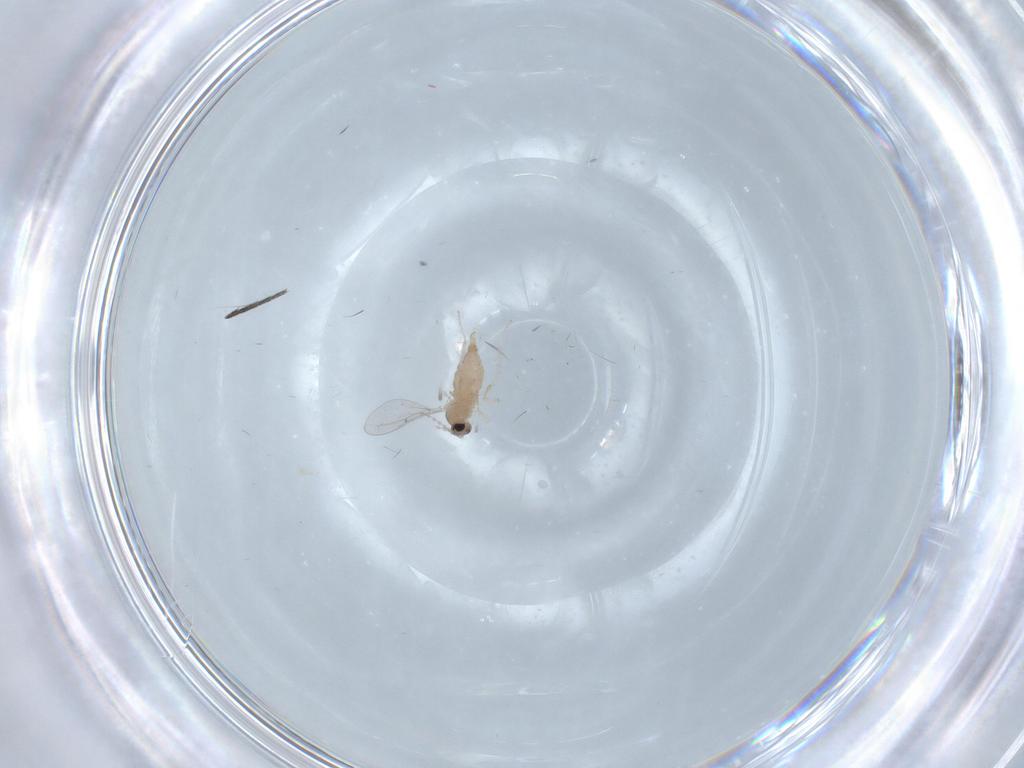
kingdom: Animalia
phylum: Arthropoda
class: Insecta
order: Diptera
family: Cecidomyiidae
